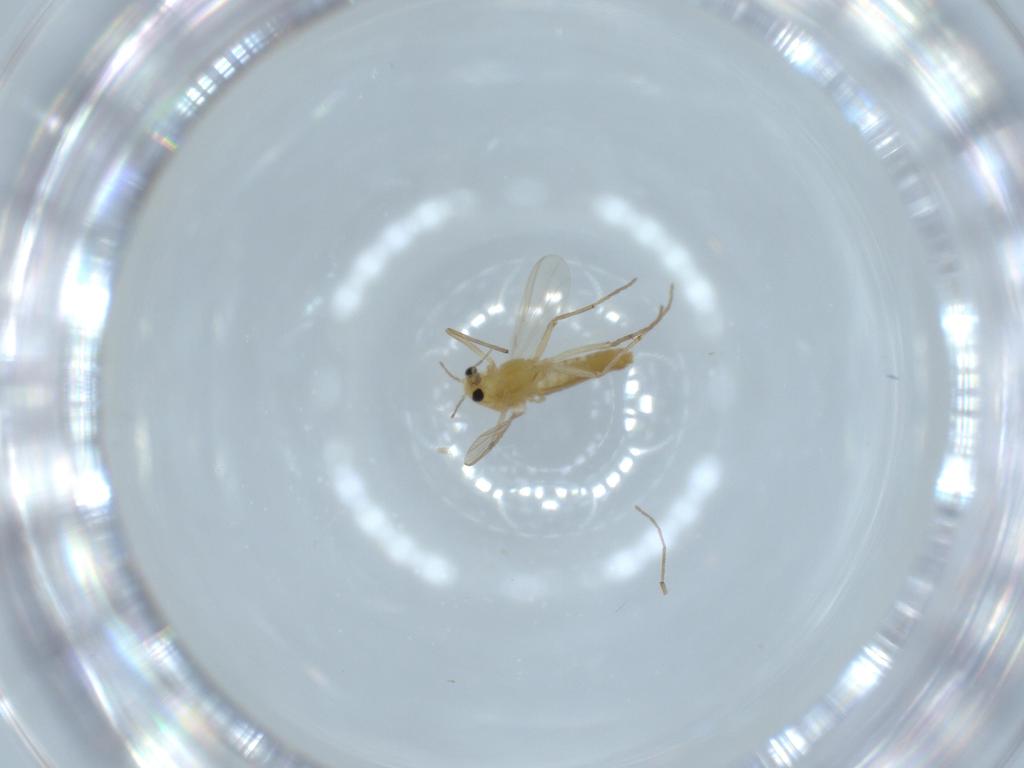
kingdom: Animalia
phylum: Arthropoda
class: Insecta
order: Diptera
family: Chironomidae
